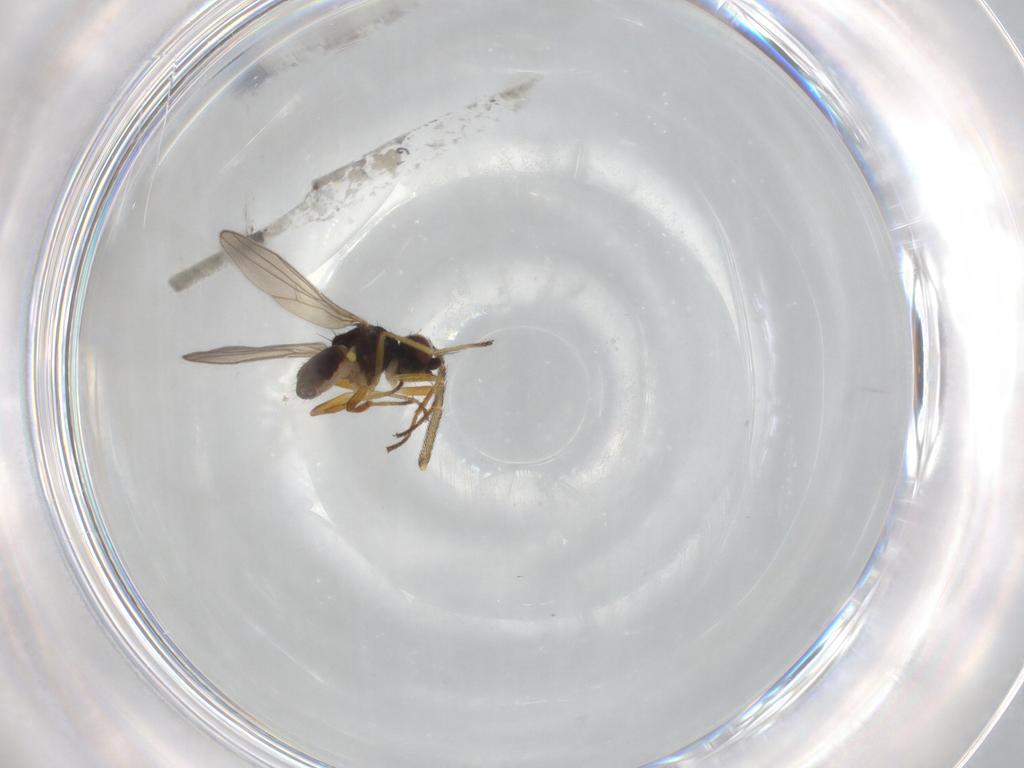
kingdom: Animalia
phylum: Arthropoda
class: Insecta
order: Diptera
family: Chloropidae
